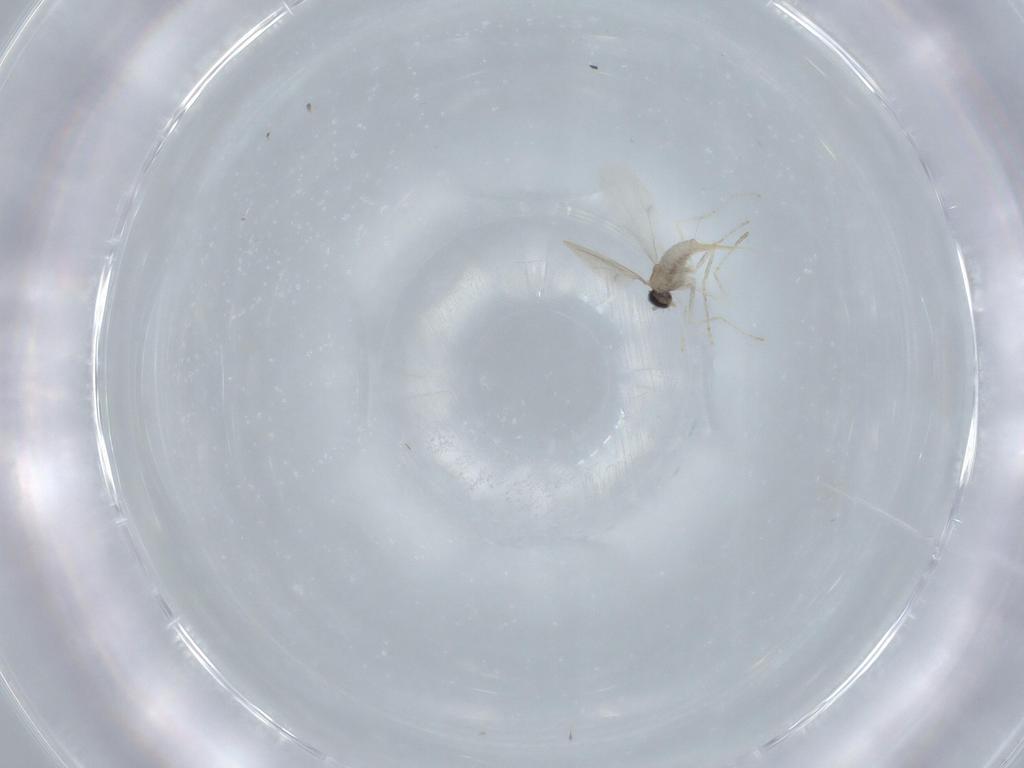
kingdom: Animalia
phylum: Arthropoda
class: Insecta
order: Diptera
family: Cecidomyiidae
